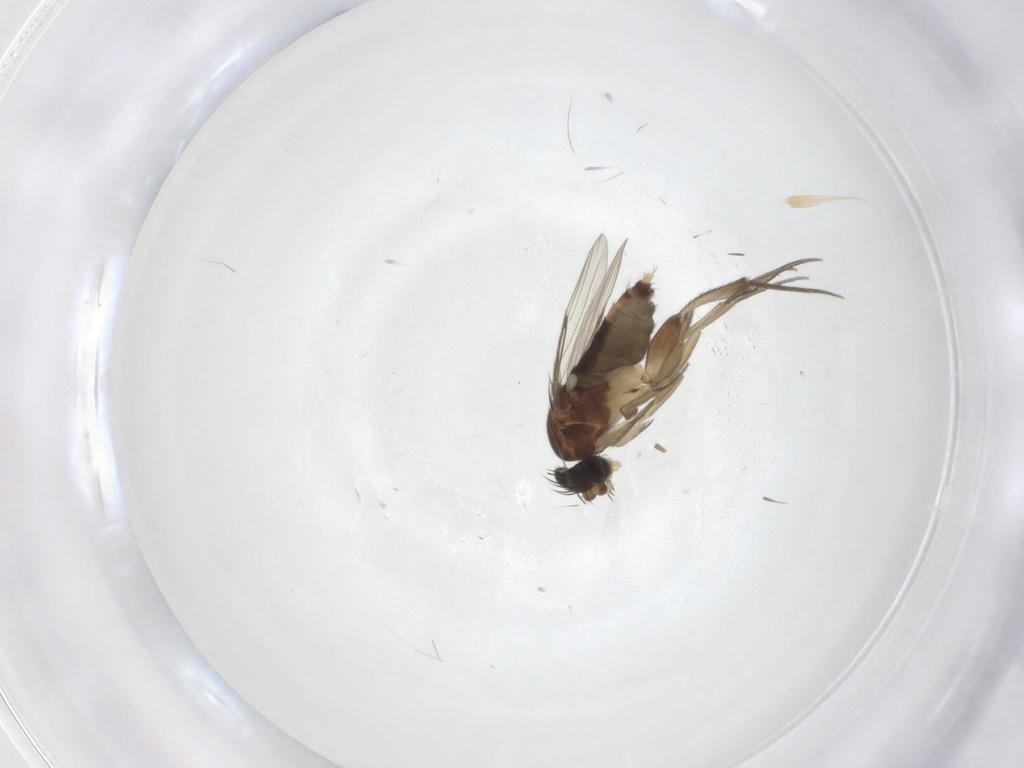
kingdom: Animalia
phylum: Arthropoda
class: Insecta
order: Diptera
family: Phoridae
